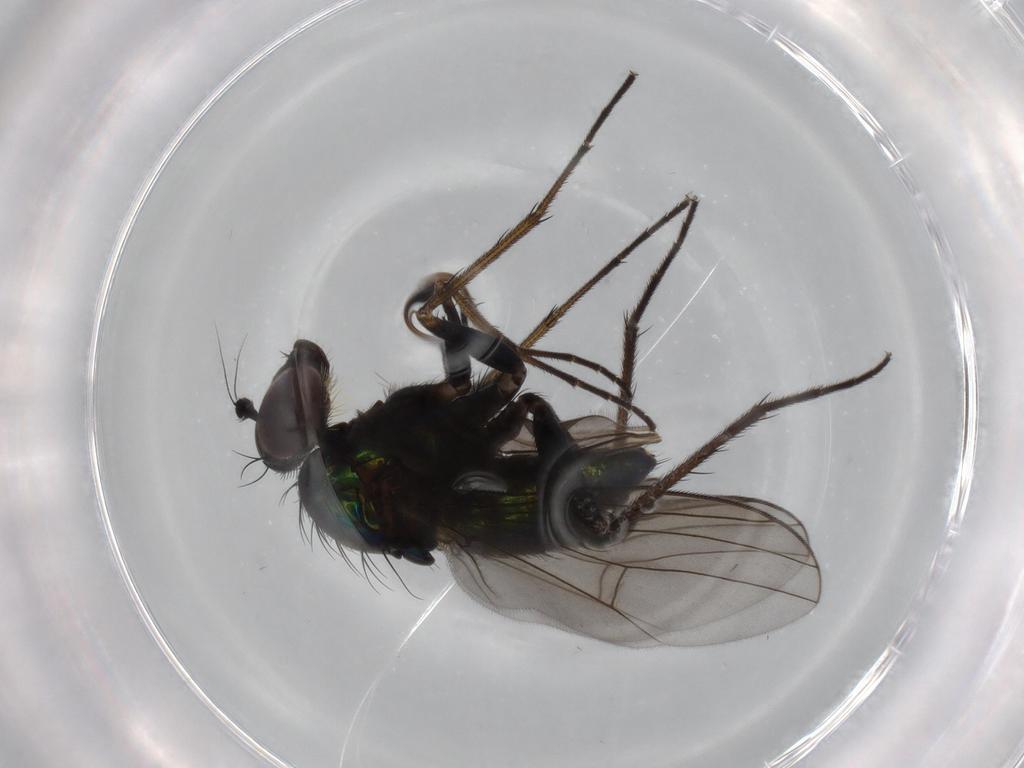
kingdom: Animalia
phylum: Arthropoda
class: Insecta
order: Diptera
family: Dolichopodidae
